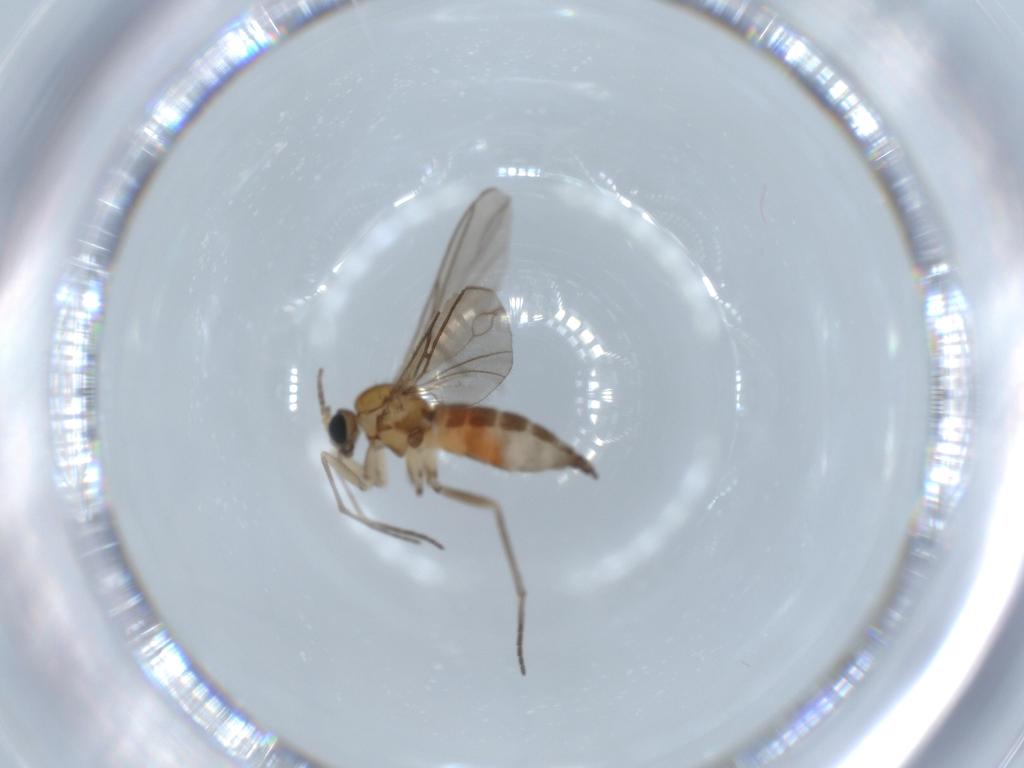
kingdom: Animalia
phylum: Arthropoda
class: Insecta
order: Diptera
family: Sciaridae
